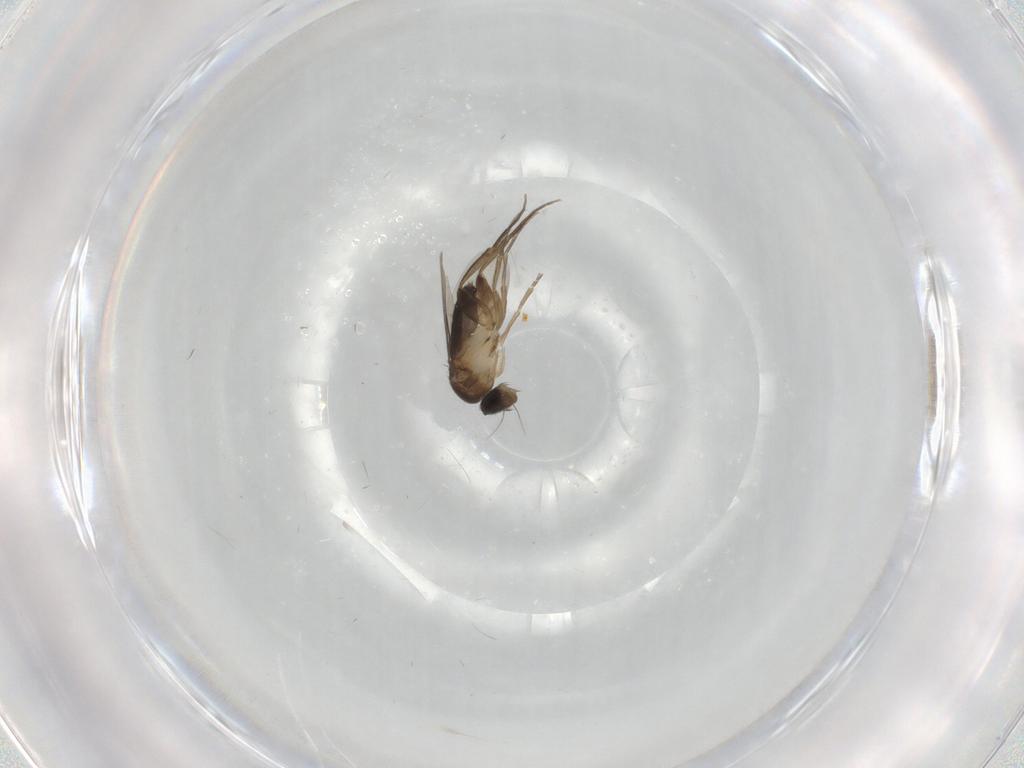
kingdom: Animalia
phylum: Arthropoda
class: Insecta
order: Diptera
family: Phoridae
